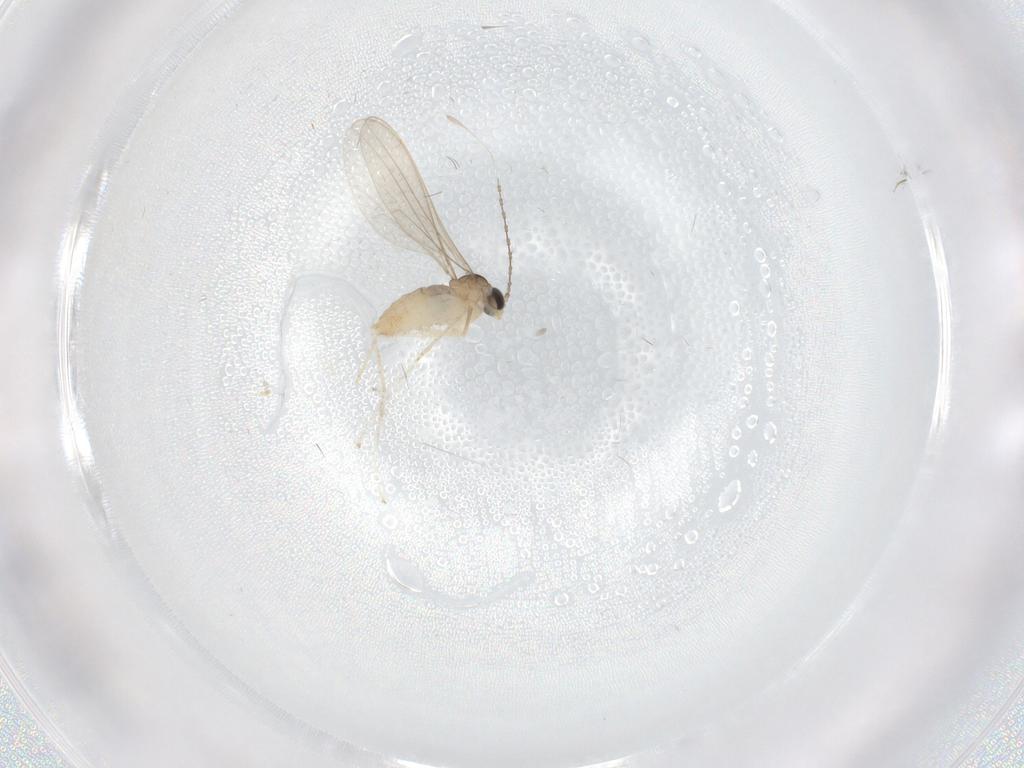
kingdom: Animalia
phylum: Arthropoda
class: Insecta
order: Diptera
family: Cecidomyiidae
